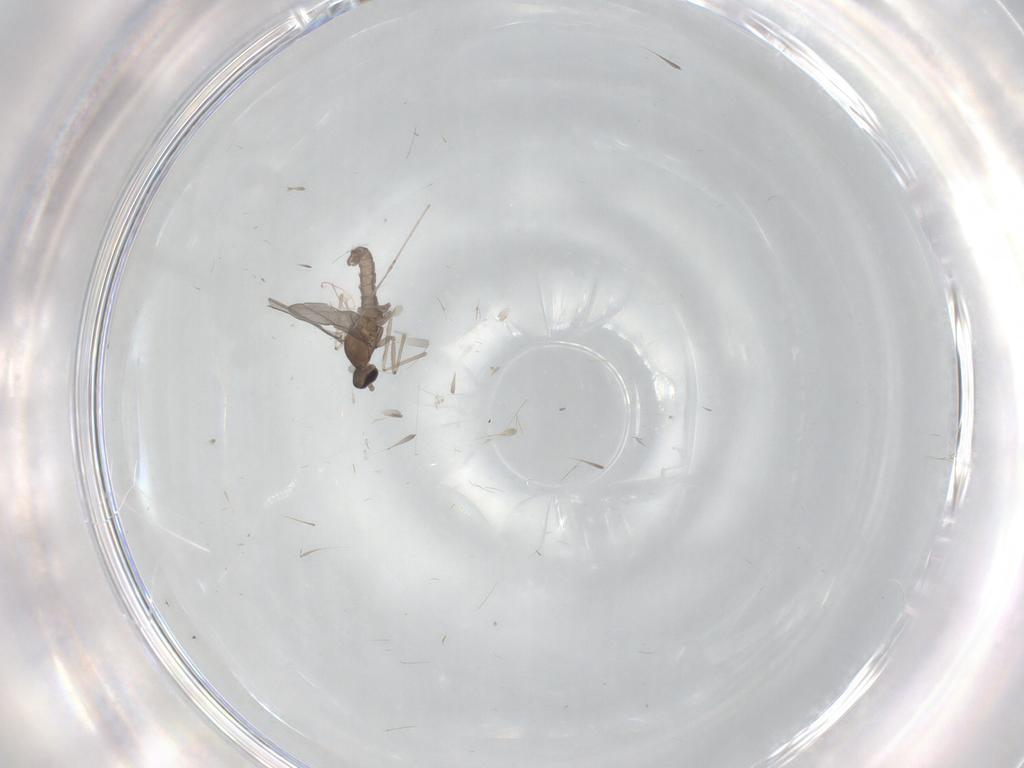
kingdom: Animalia
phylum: Arthropoda
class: Insecta
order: Diptera
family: Cecidomyiidae
